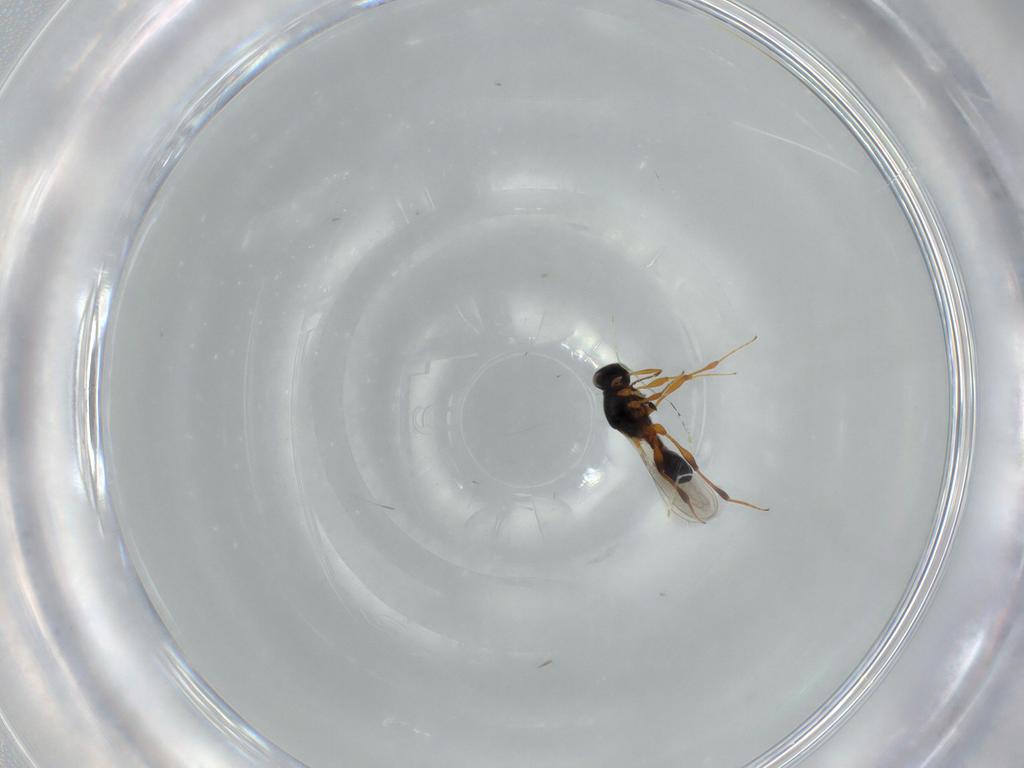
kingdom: Animalia
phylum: Arthropoda
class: Insecta
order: Hymenoptera
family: Platygastridae
